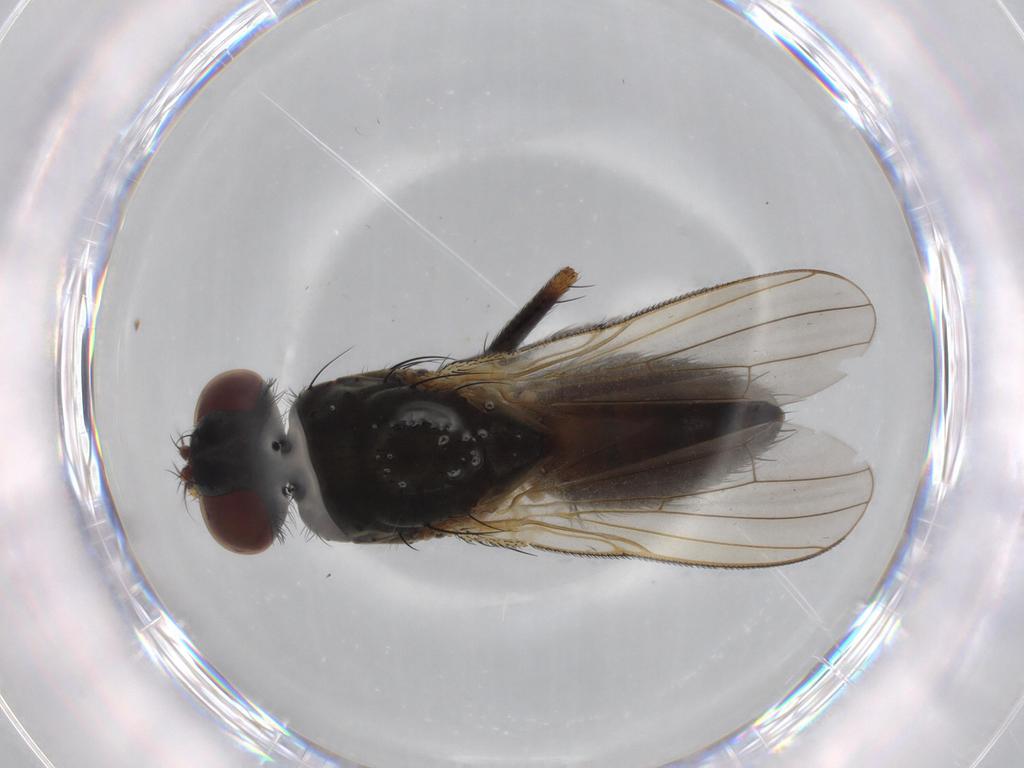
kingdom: Animalia
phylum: Arthropoda
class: Insecta
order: Diptera
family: Muscidae
